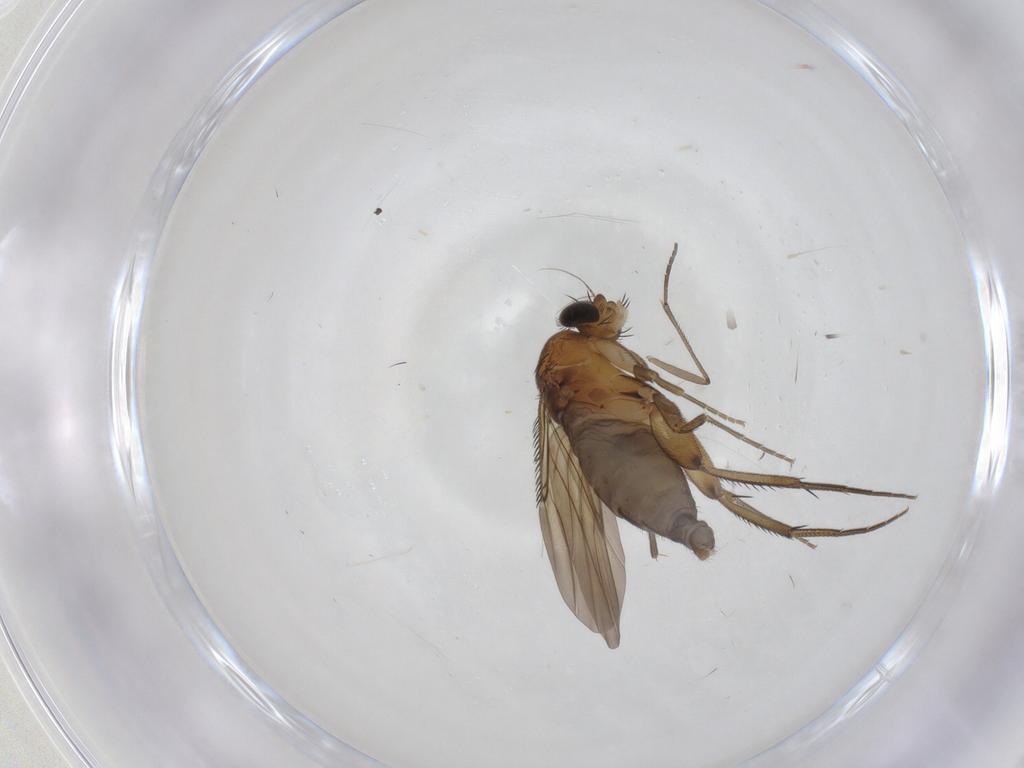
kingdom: Animalia
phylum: Arthropoda
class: Insecta
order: Diptera
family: Phoridae
